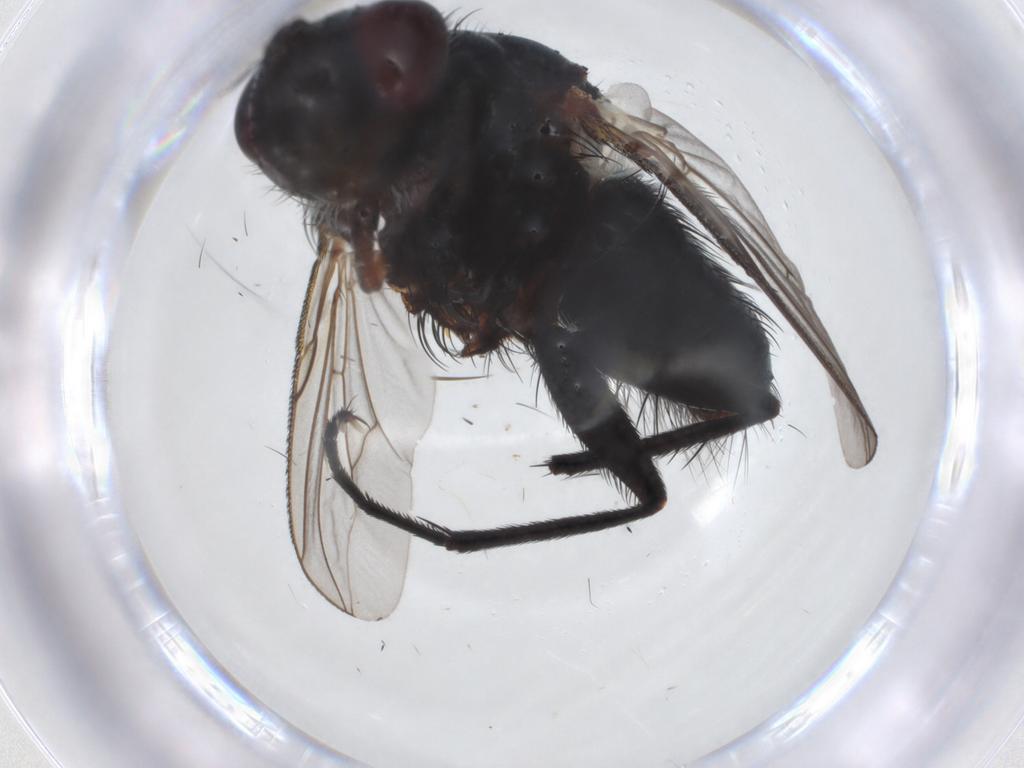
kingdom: Animalia
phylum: Arthropoda
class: Insecta
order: Diptera
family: Tachinidae
